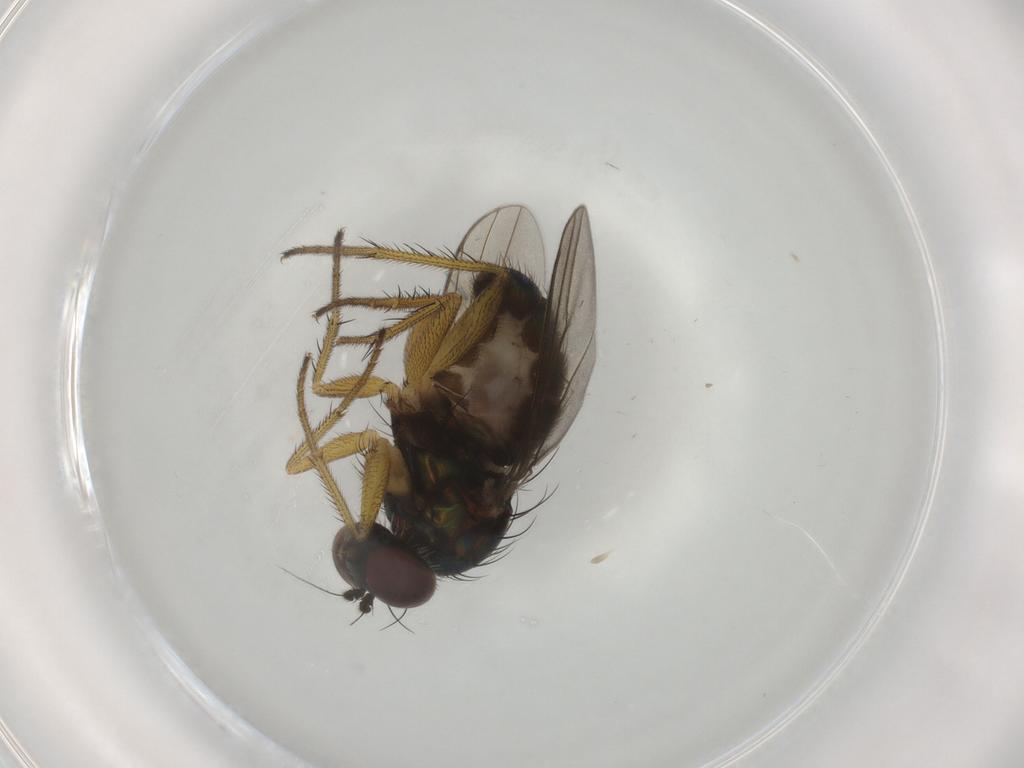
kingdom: Animalia
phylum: Arthropoda
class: Insecta
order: Diptera
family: Dolichopodidae
